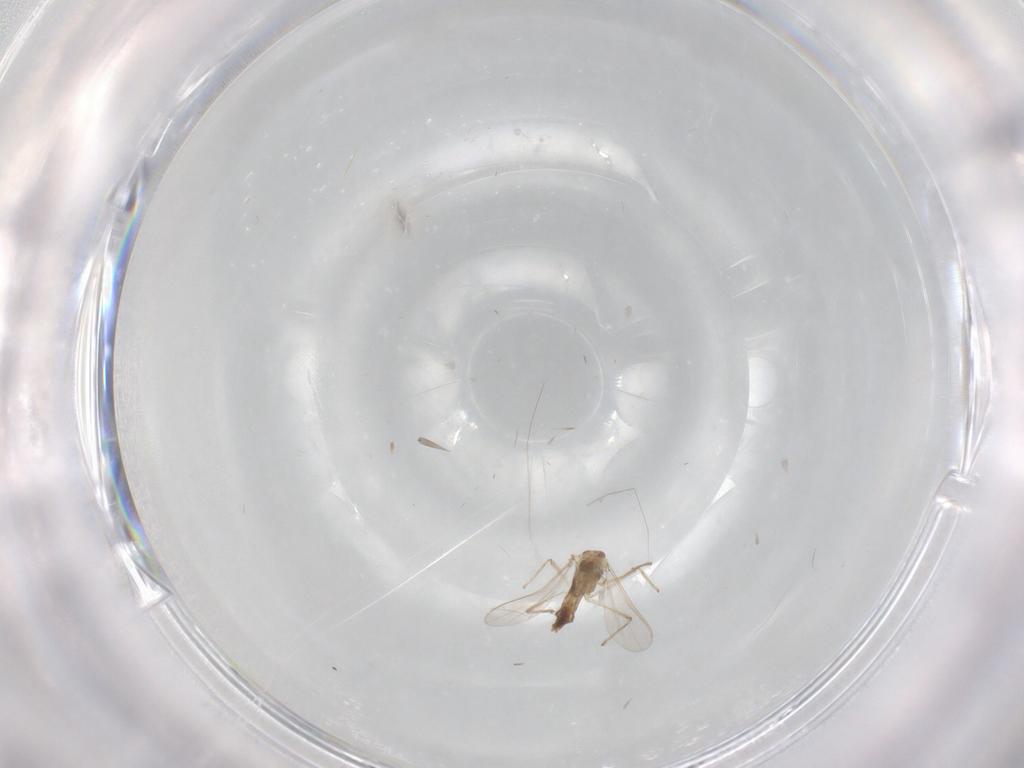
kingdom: Animalia
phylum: Arthropoda
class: Insecta
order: Diptera
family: Chironomidae
